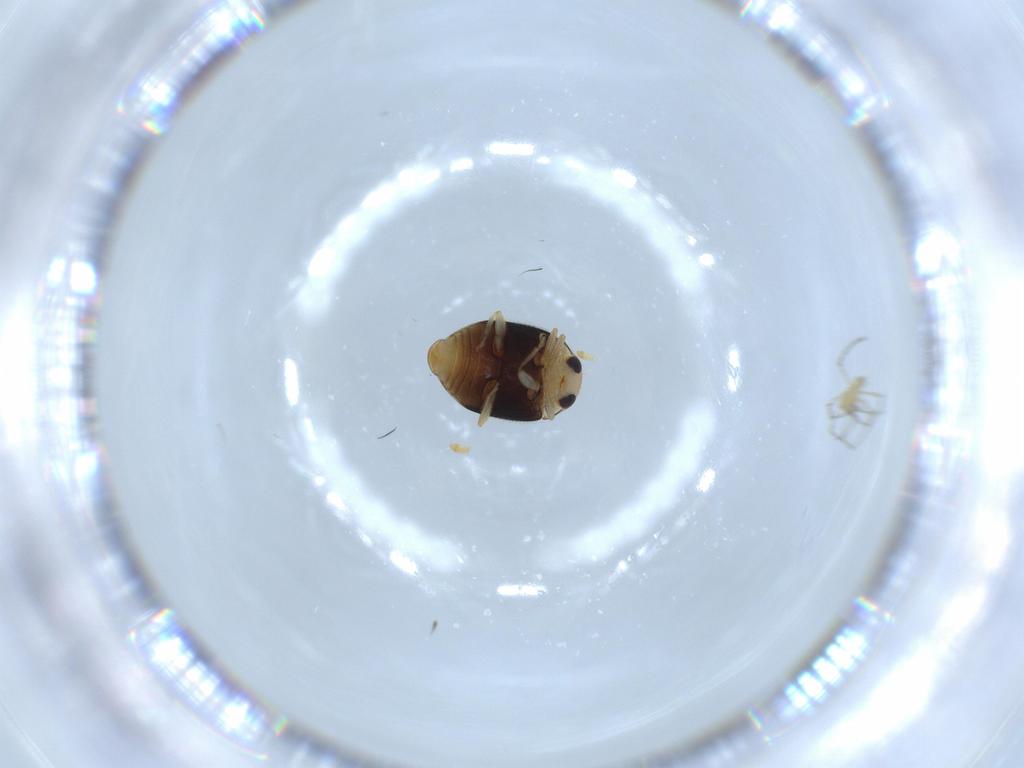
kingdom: Animalia
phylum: Arthropoda
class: Insecta
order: Coleoptera
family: Coccinellidae
